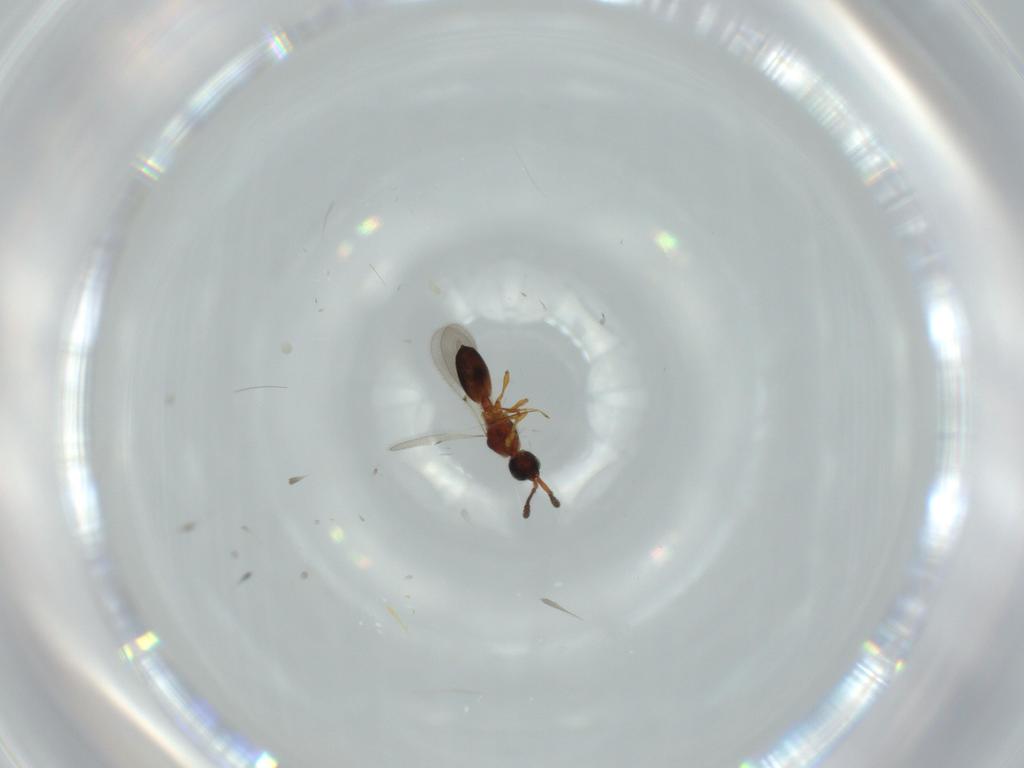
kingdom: Animalia
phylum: Arthropoda
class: Insecta
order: Hymenoptera
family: Diapriidae
